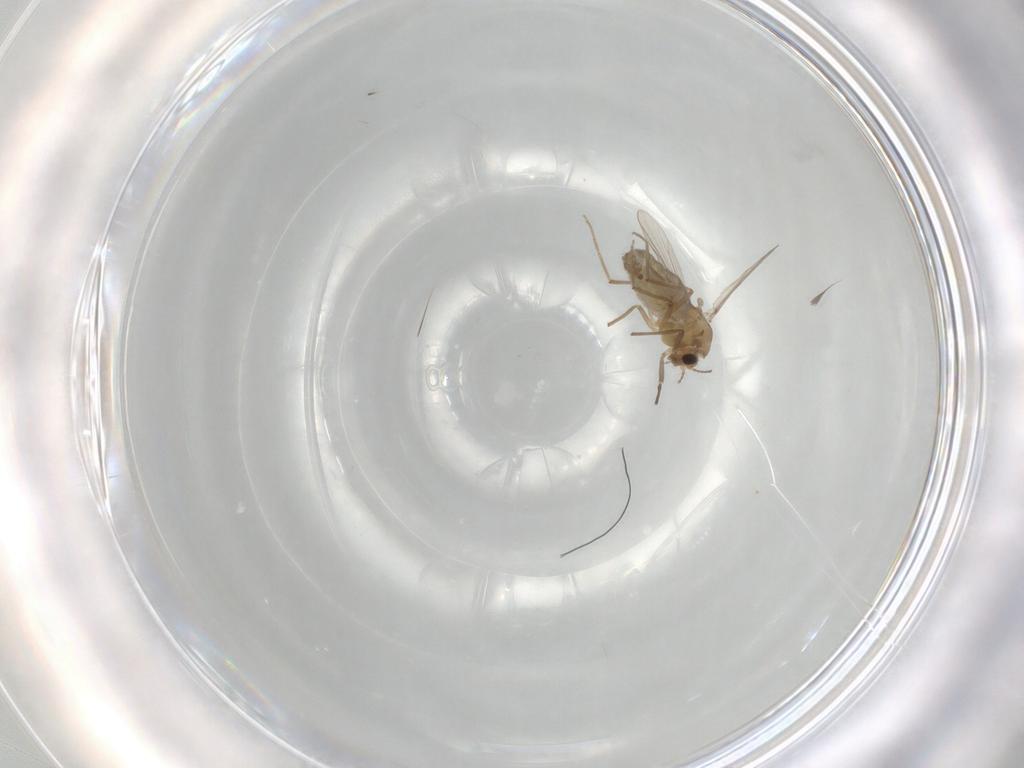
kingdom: Animalia
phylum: Arthropoda
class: Insecta
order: Diptera
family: Chironomidae
